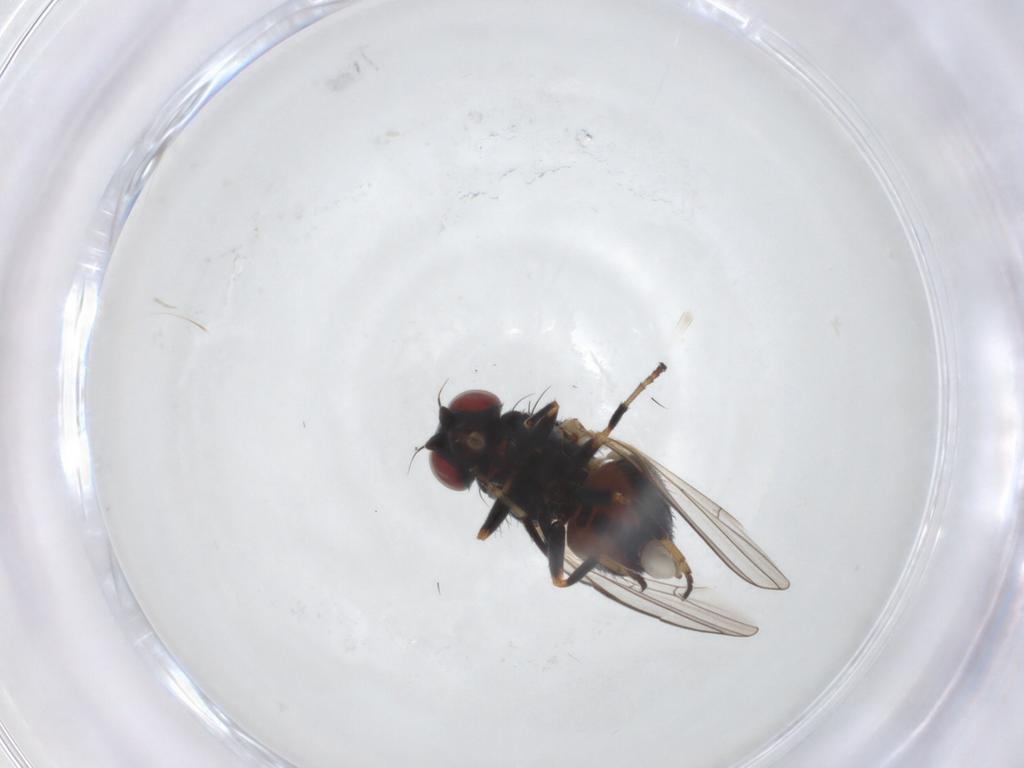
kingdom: Animalia
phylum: Arthropoda
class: Insecta
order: Diptera
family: Chamaemyiidae
